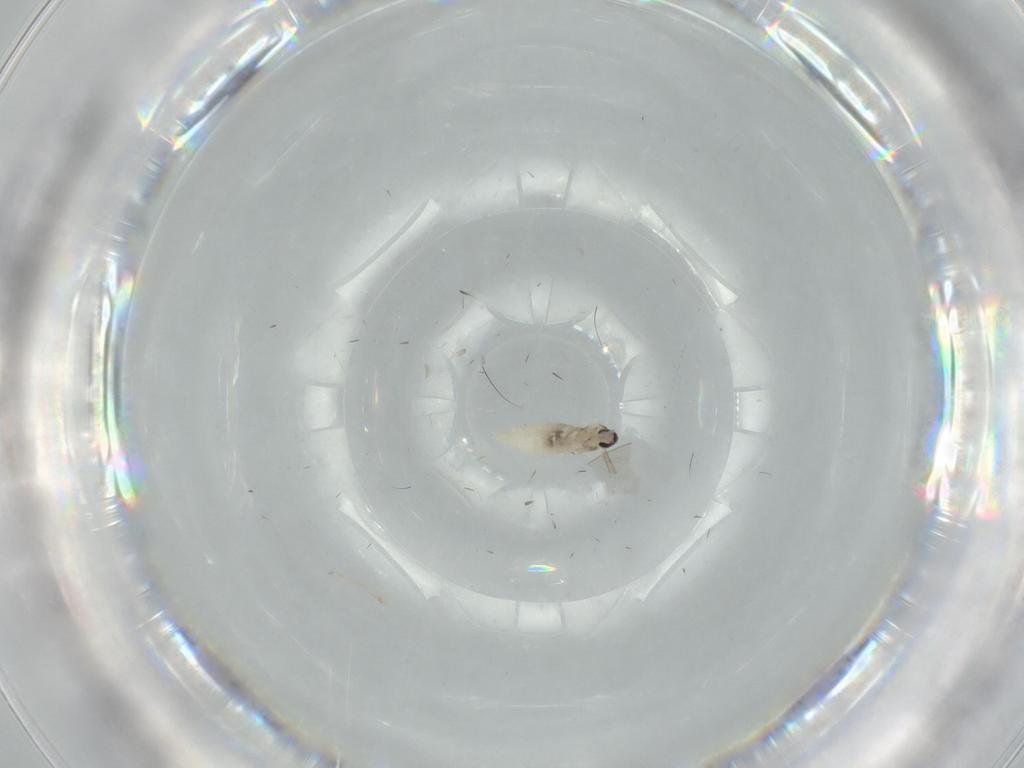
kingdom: Animalia
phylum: Arthropoda
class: Insecta
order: Diptera
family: Cecidomyiidae
